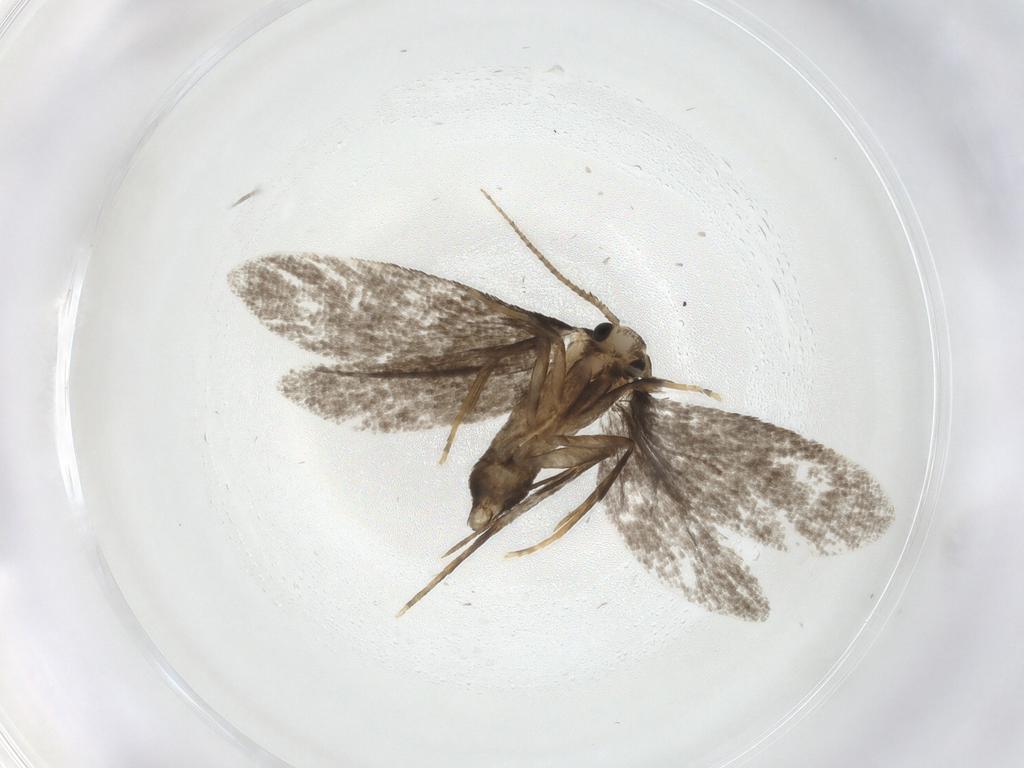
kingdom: Animalia
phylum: Arthropoda
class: Insecta
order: Lepidoptera
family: Psychidae
